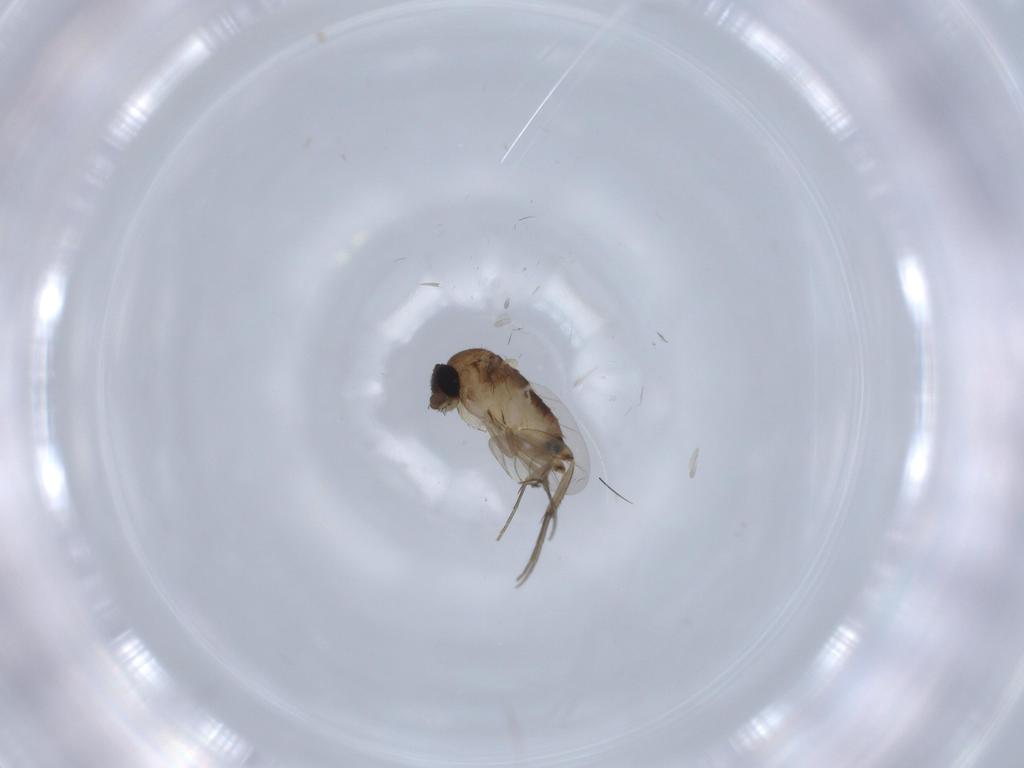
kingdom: Animalia
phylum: Arthropoda
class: Insecta
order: Diptera
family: Phoridae
